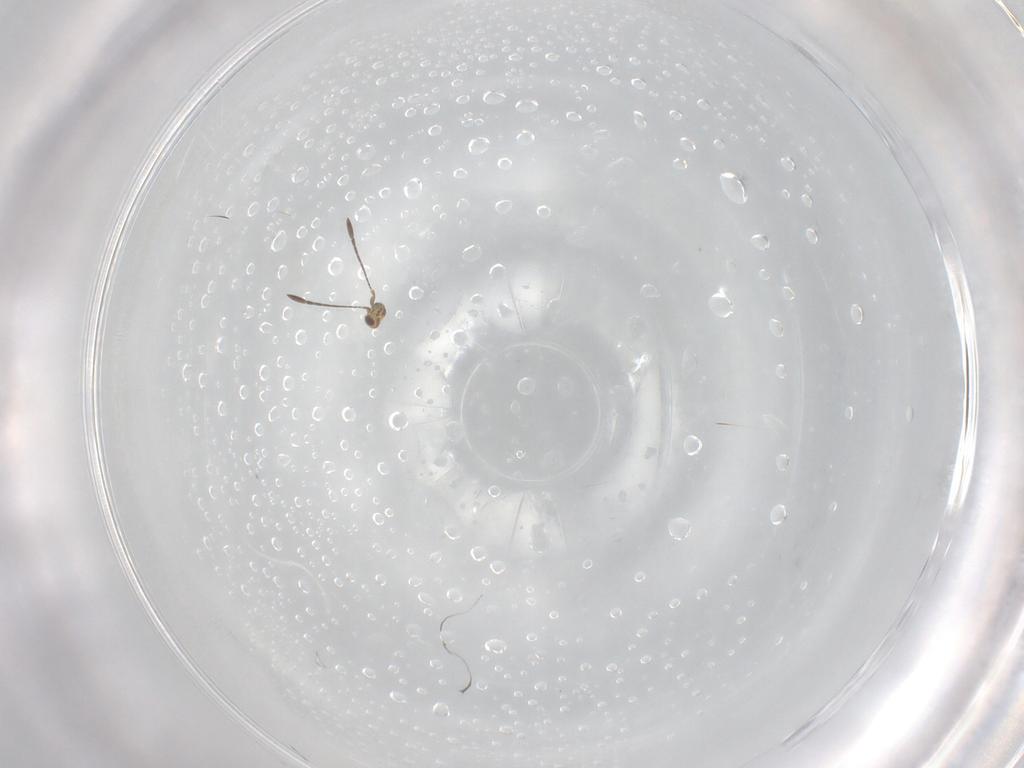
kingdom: Animalia
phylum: Arthropoda
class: Insecta
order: Hymenoptera
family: Mymaridae
